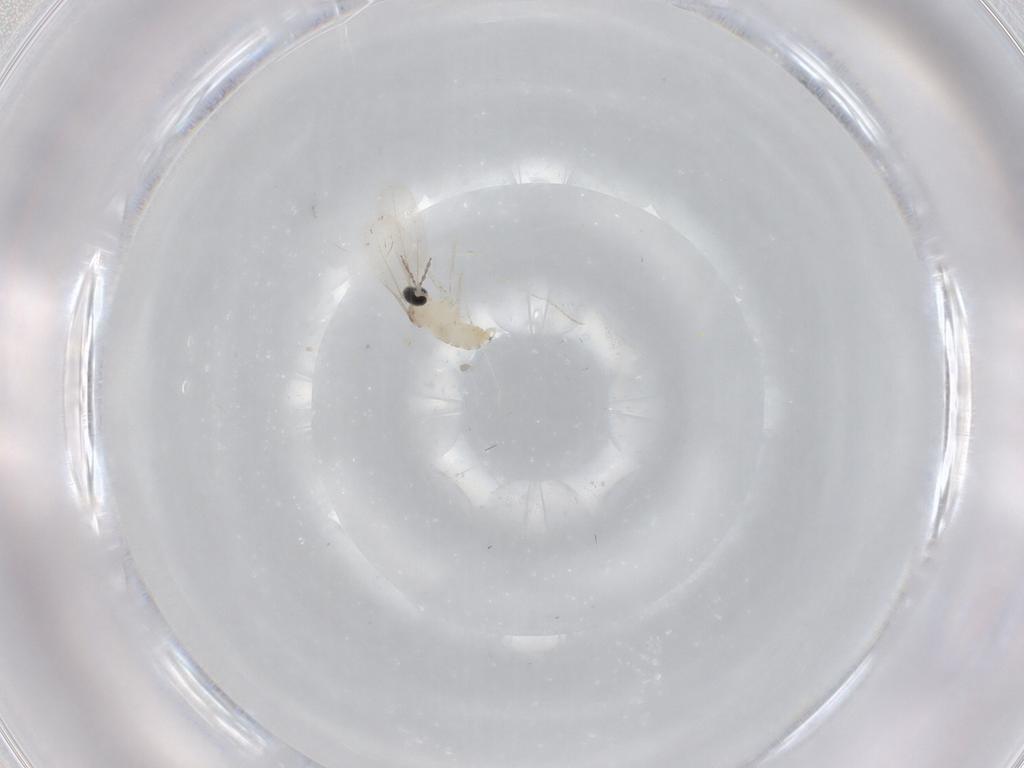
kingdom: Animalia
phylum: Arthropoda
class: Insecta
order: Diptera
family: Cecidomyiidae
